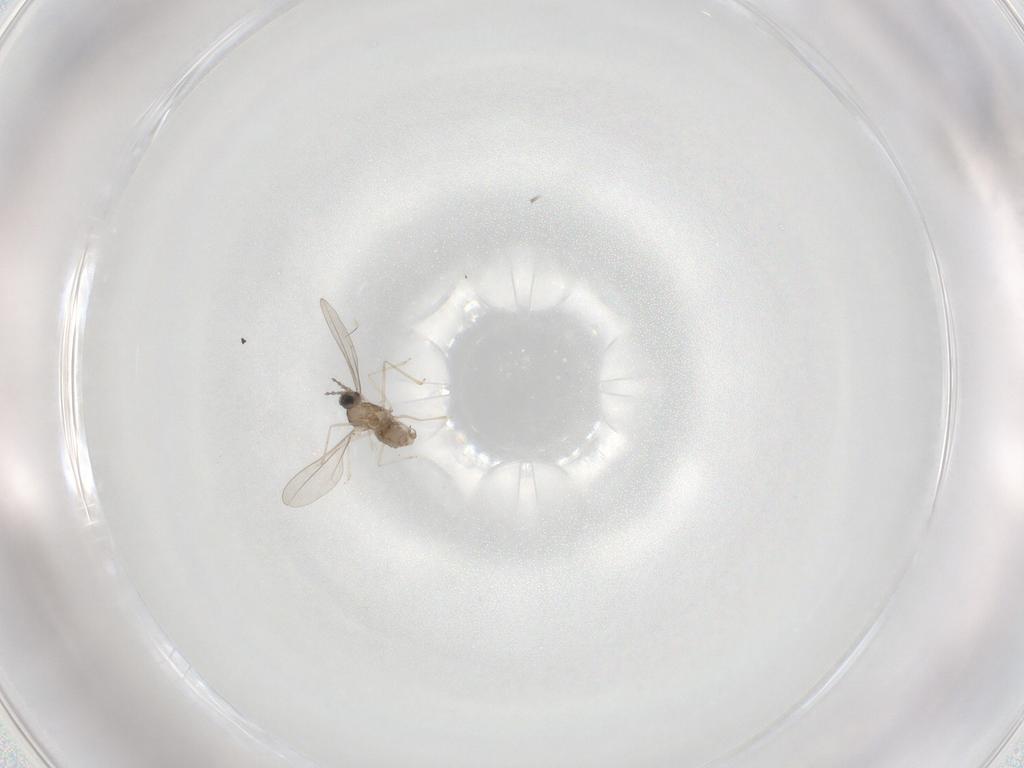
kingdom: Animalia
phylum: Arthropoda
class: Insecta
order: Diptera
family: Cecidomyiidae
